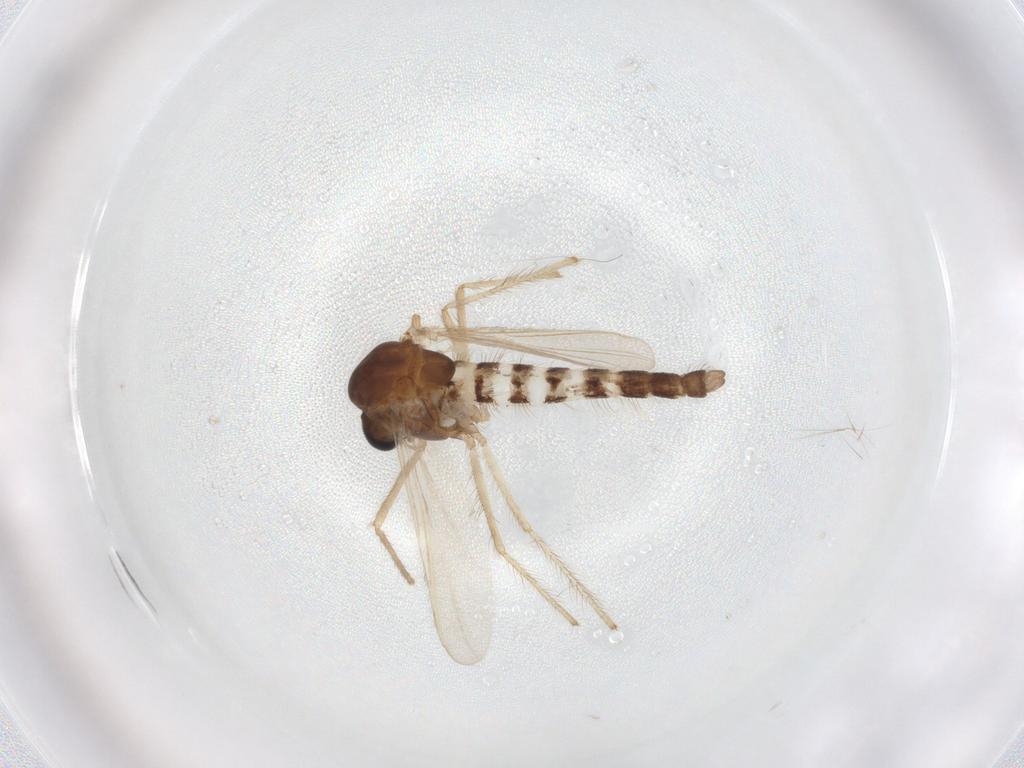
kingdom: Animalia
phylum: Arthropoda
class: Insecta
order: Diptera
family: Chironomidae
